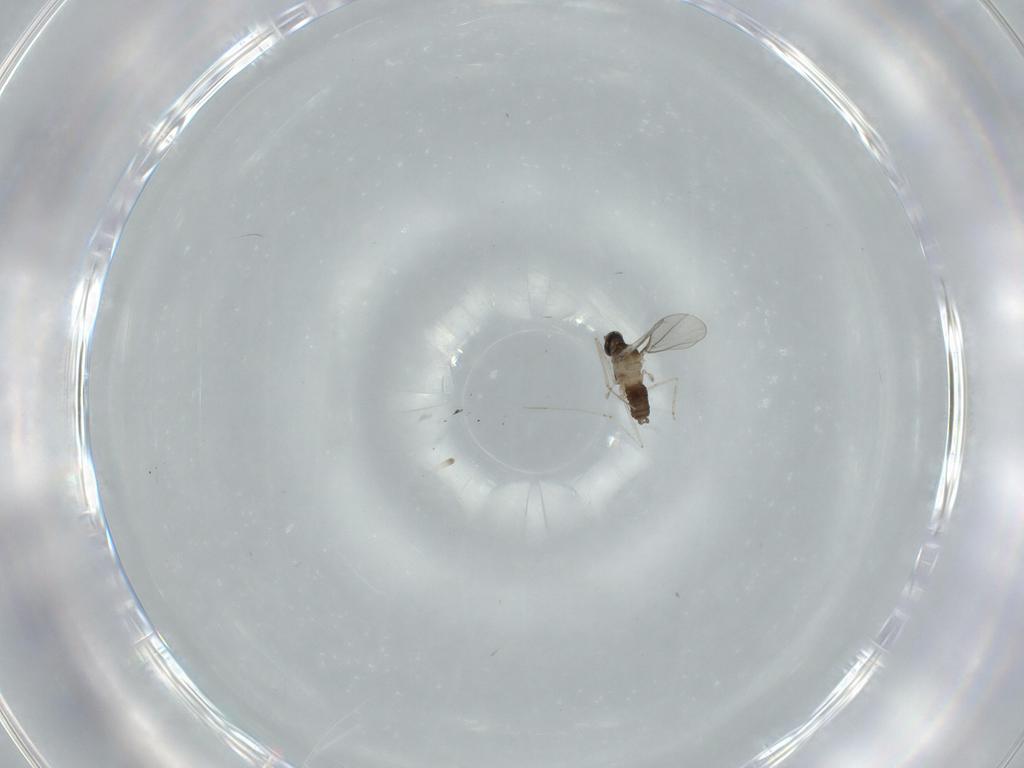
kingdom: Animalia
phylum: Arthropoda
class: Insecta
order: Diptera
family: Cecidomyiidae
